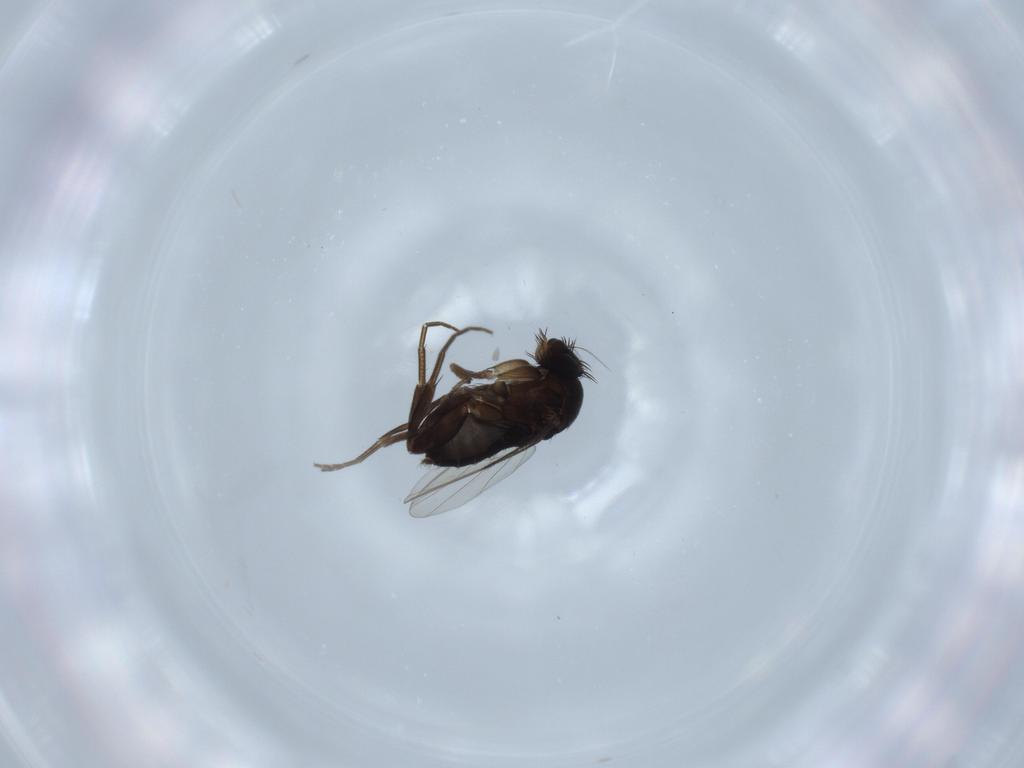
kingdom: Animalia
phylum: Arthropoda
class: Insecta
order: Diptera
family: Phoridae
